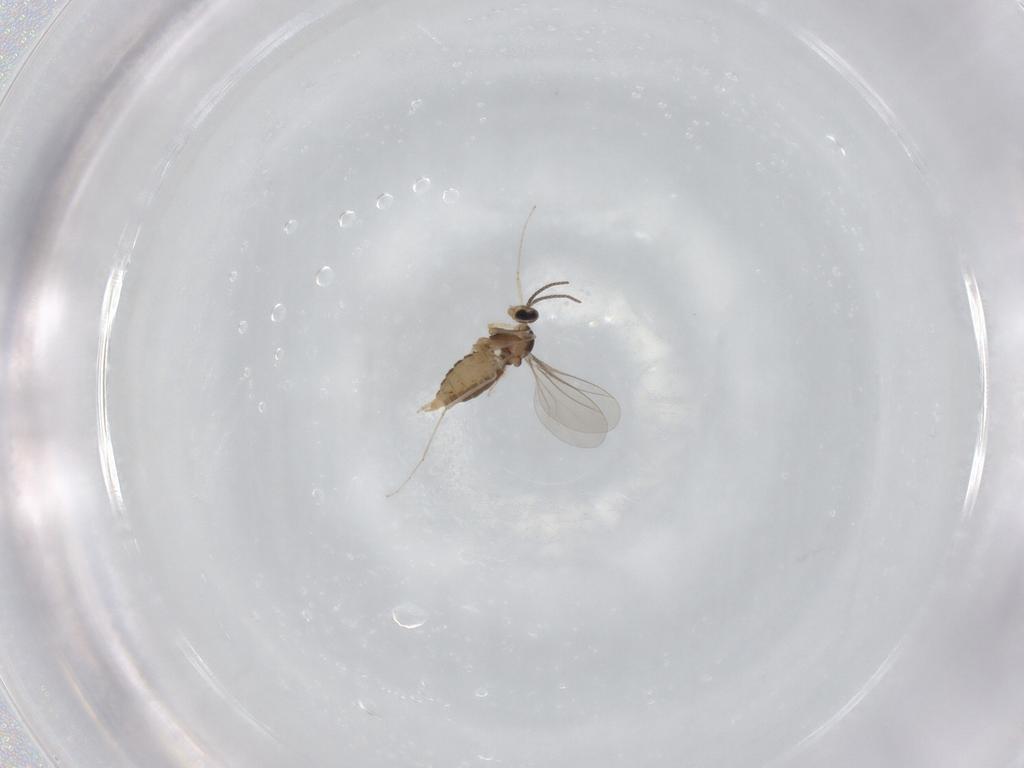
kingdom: Animalia
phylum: Arthropoda
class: Insecta
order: Diptera
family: Cecidomyiidae
